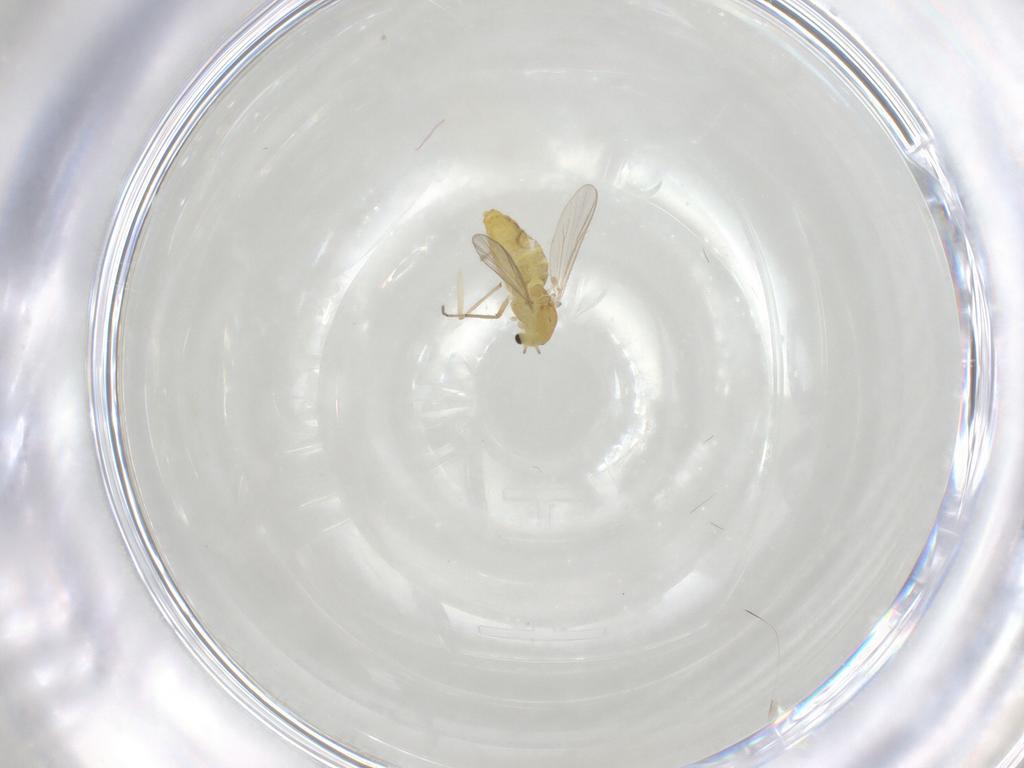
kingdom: Animalia
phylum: Arthropoda
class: Insecta
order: Diptera
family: Chironomidae
